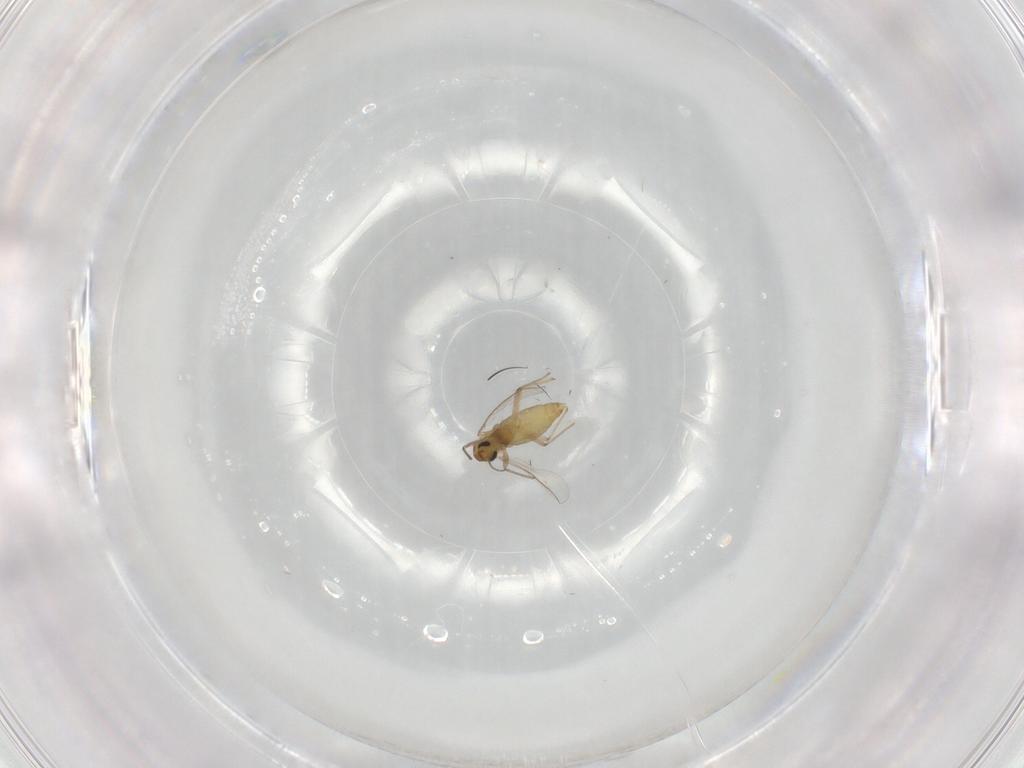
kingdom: Animalia
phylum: Arthropoda
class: Insecta
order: Diptera
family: Chironomidae
